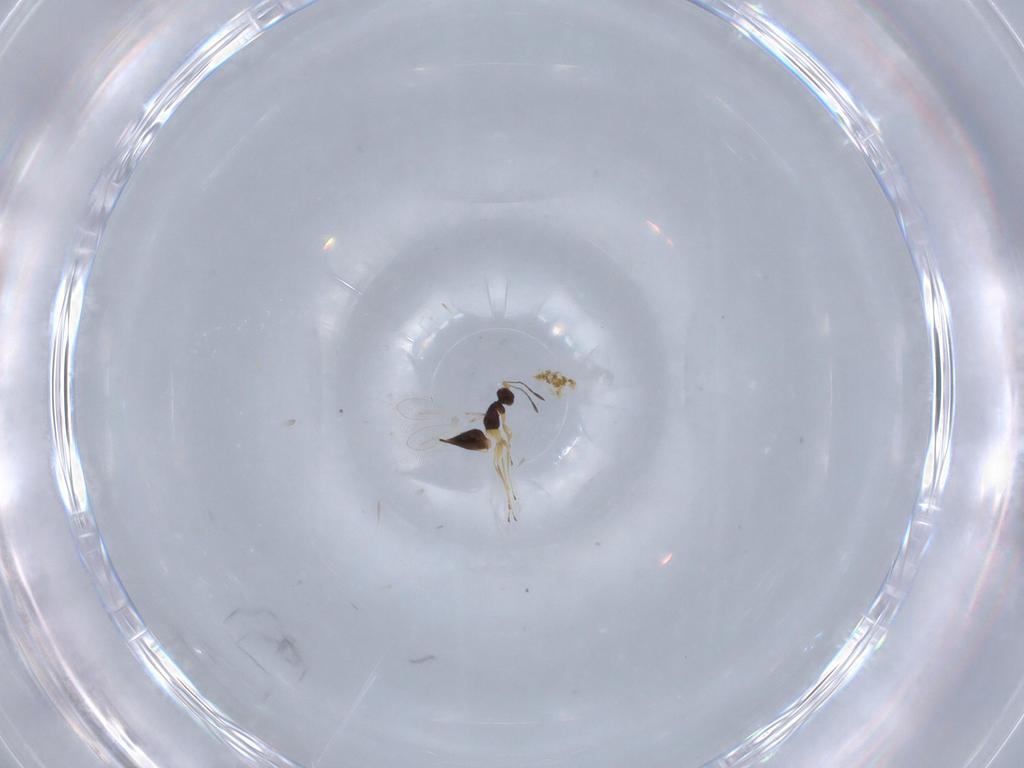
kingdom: Animalia
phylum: Arthropoda
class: Insecta
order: Hymenoptera
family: Mymaridae
